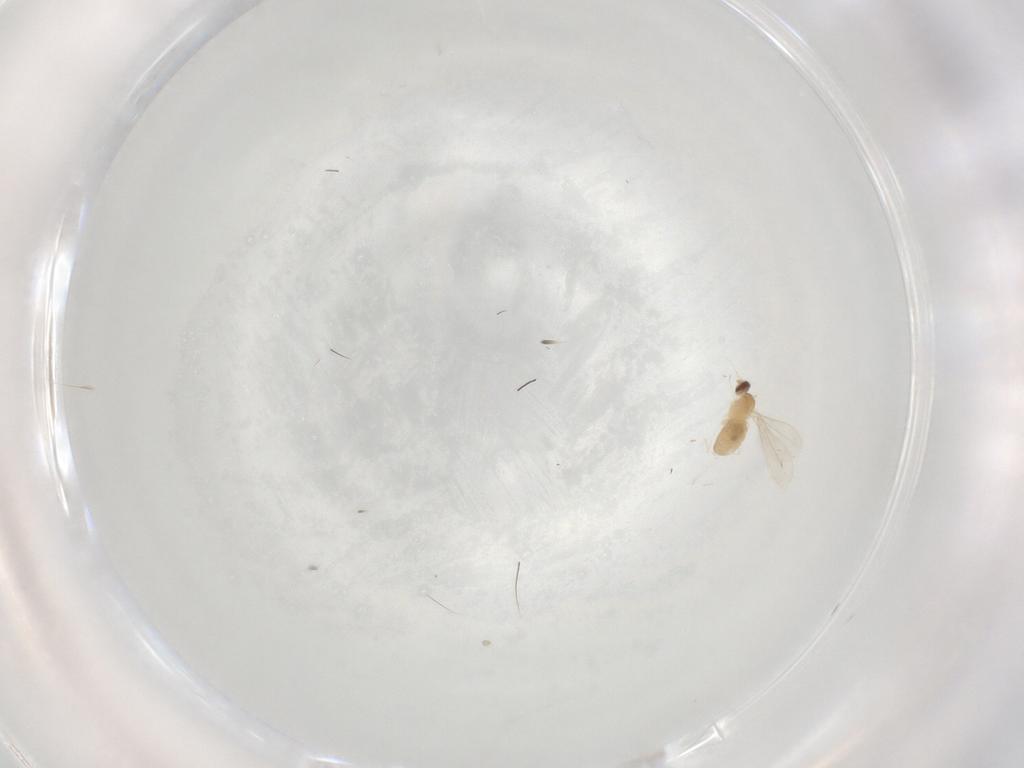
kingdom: Animalia
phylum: Arthropoda
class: Insecta
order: Diptera
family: Cecidomyiidae
